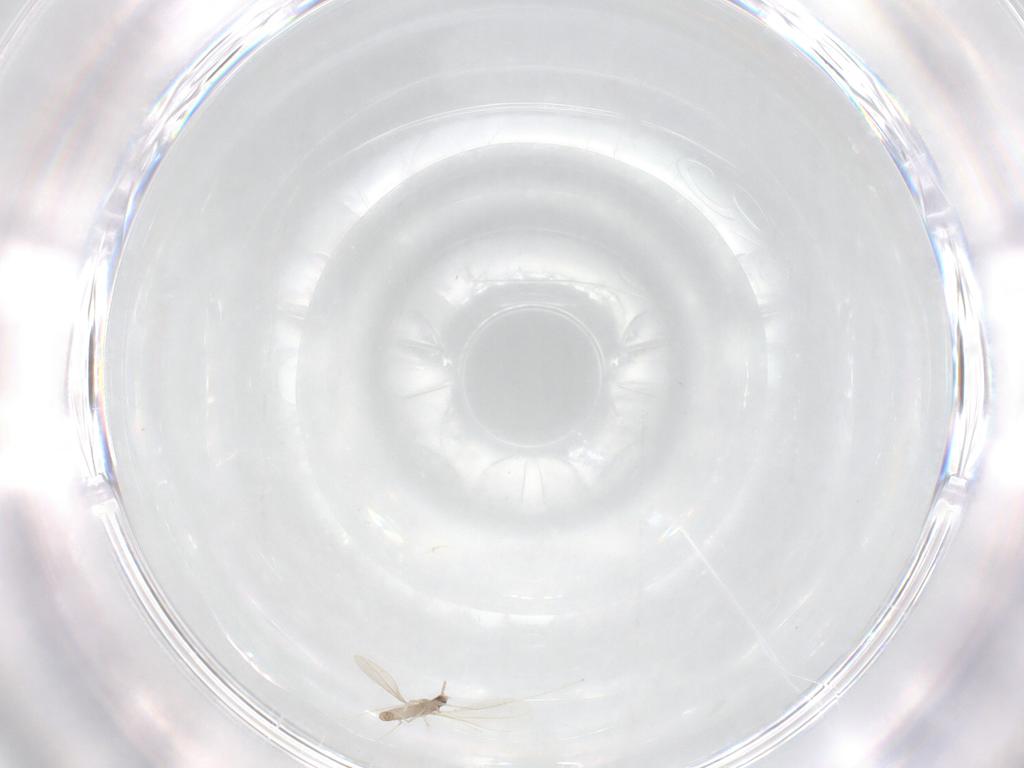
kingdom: Animalia
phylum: Arthropoda
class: Insecta
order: Diptera
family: Cecidomyiidae
